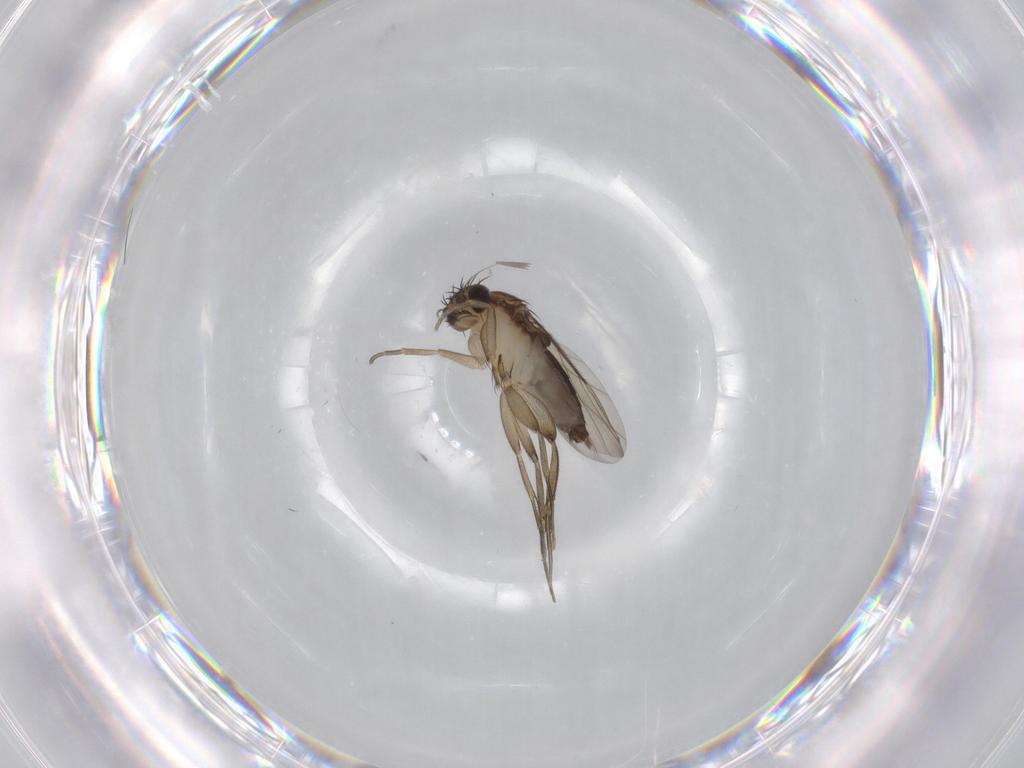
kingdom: Animalia
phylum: Arthropoda
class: Insecta
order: Diptera
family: Phoridae
